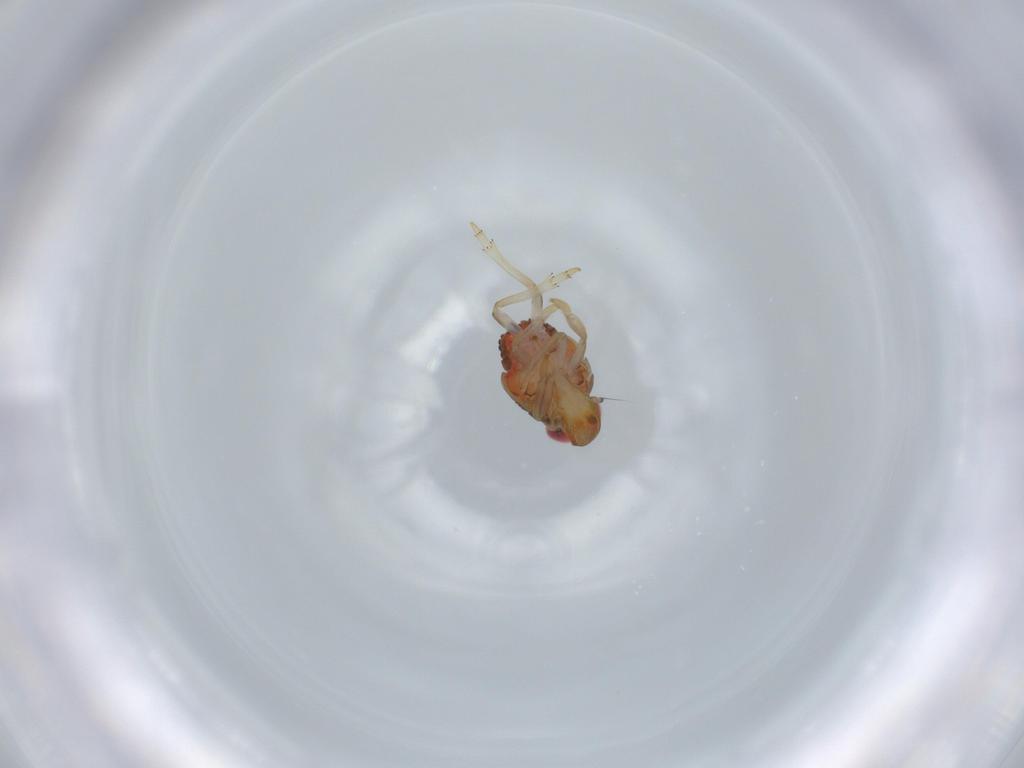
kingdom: Animalia
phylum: Arthropoda
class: Insecta
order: Hemiptera
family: Issidae
